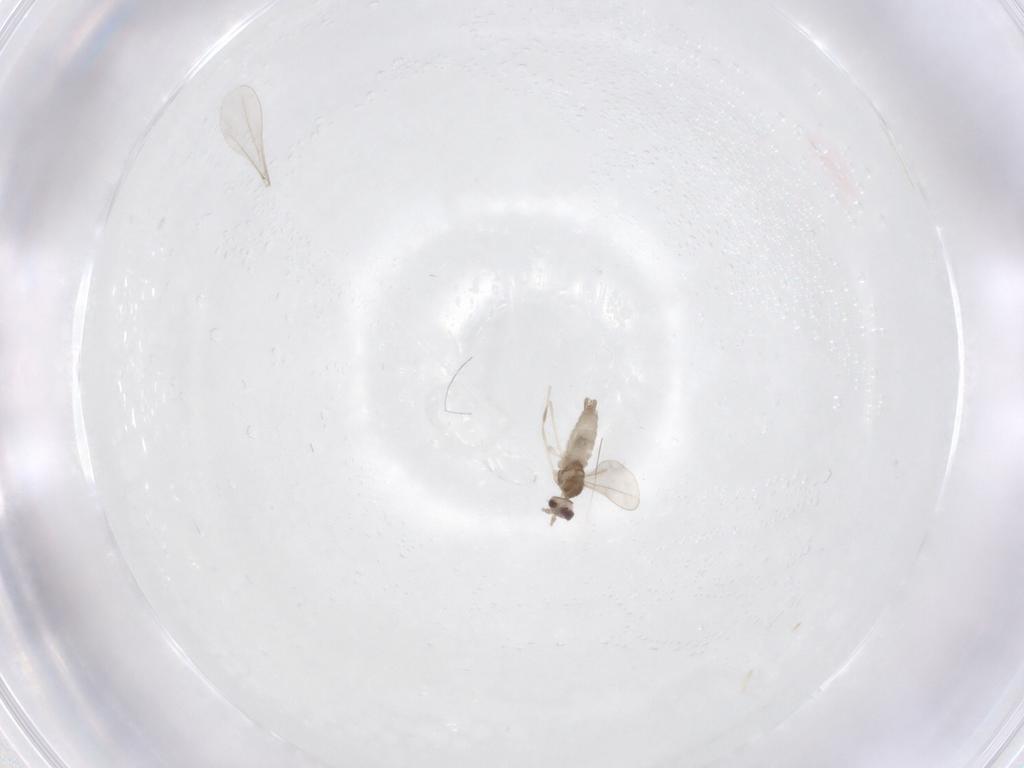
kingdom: Animalia
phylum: Arthropoda
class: Insecta
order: Diptera
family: Cecidomyiidae
